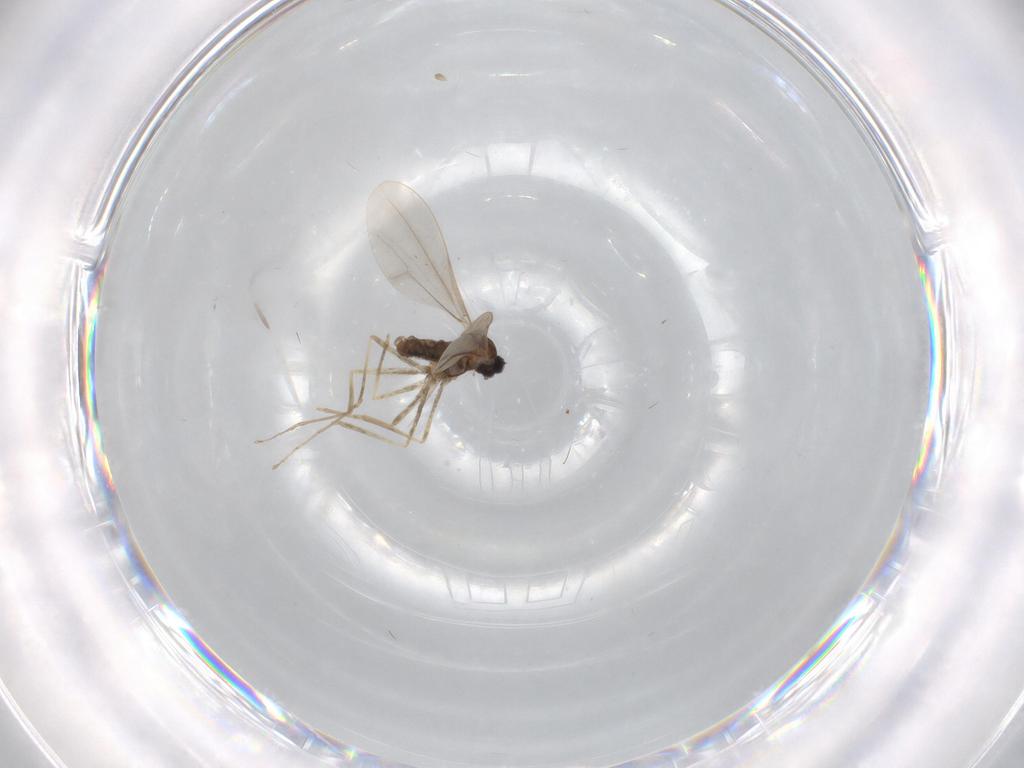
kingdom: Animalia
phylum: Arthropoda
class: Insecta
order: Diptera
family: Cecidomyiidae
